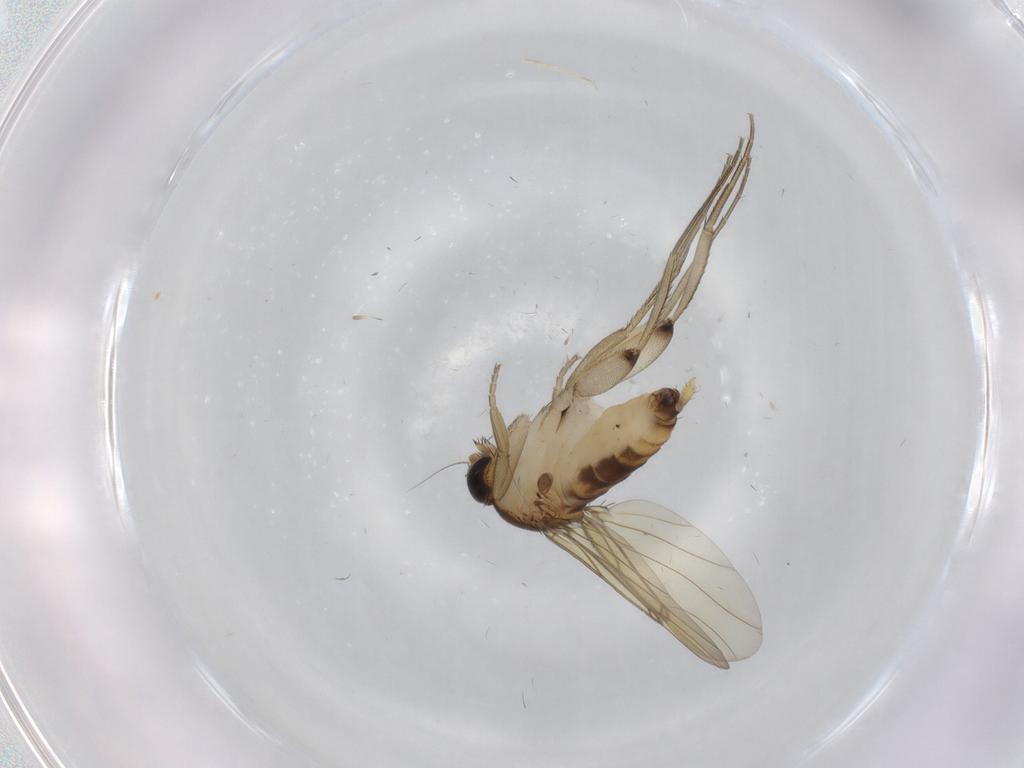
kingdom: Animalia
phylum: Arthropoda
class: Insecta
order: Diptera
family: Phoridae
